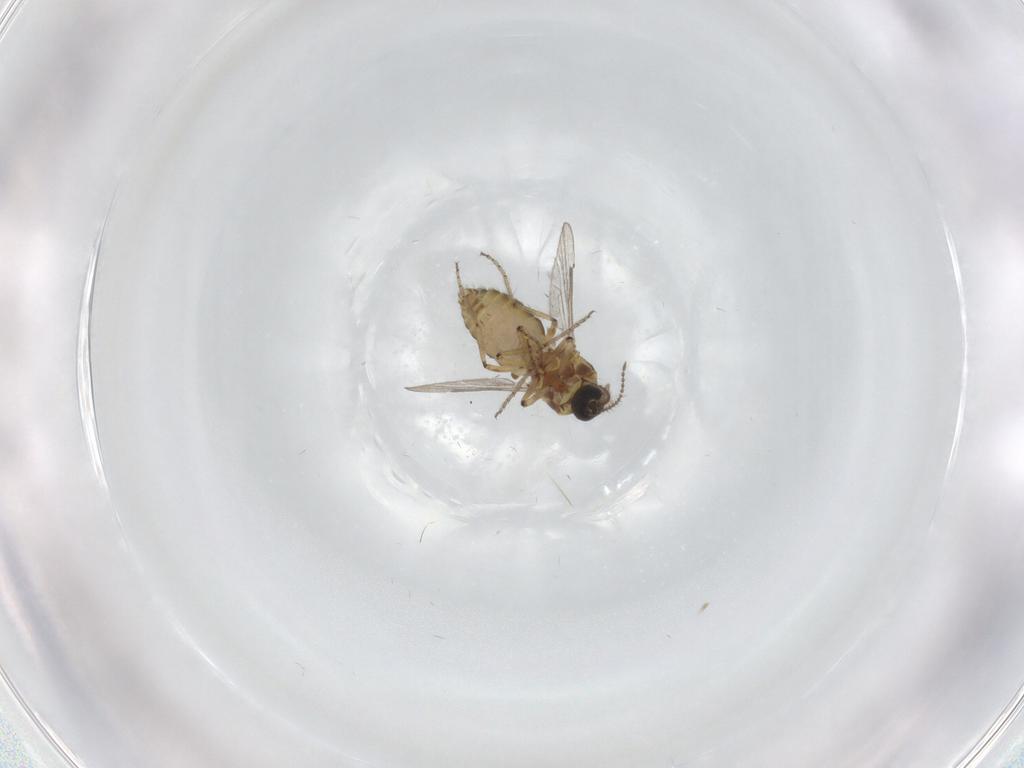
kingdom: Animalia
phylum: Arthropoda
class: Insecta
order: Diptera
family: Ceratopogonidae
